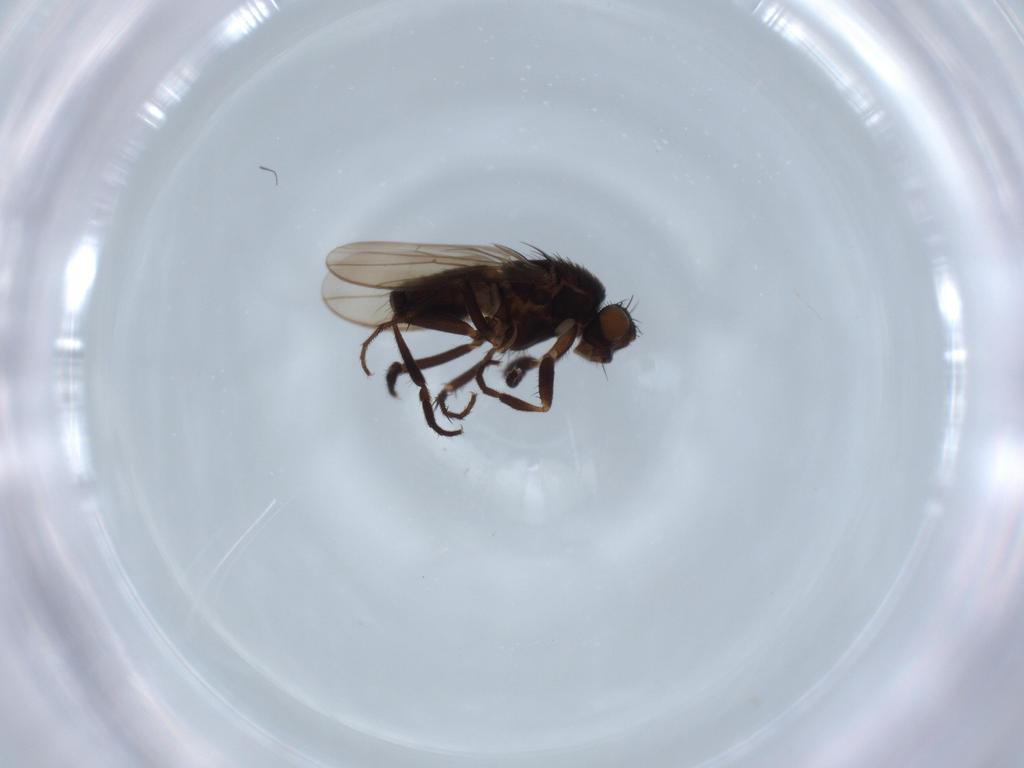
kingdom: Animalia
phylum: Arthropoda
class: Insecta
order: Diptera
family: Sphaeroceridae
